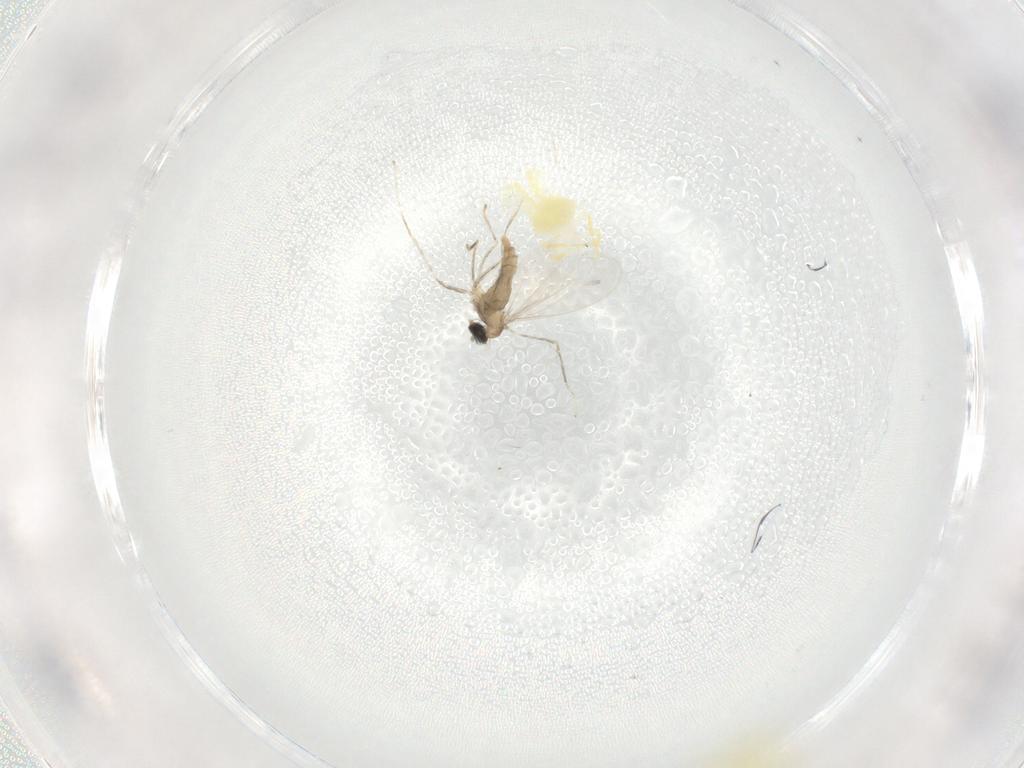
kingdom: Animalia
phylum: Arthropoda
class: Insecta
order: Hemiptera
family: Aleyrodidae
